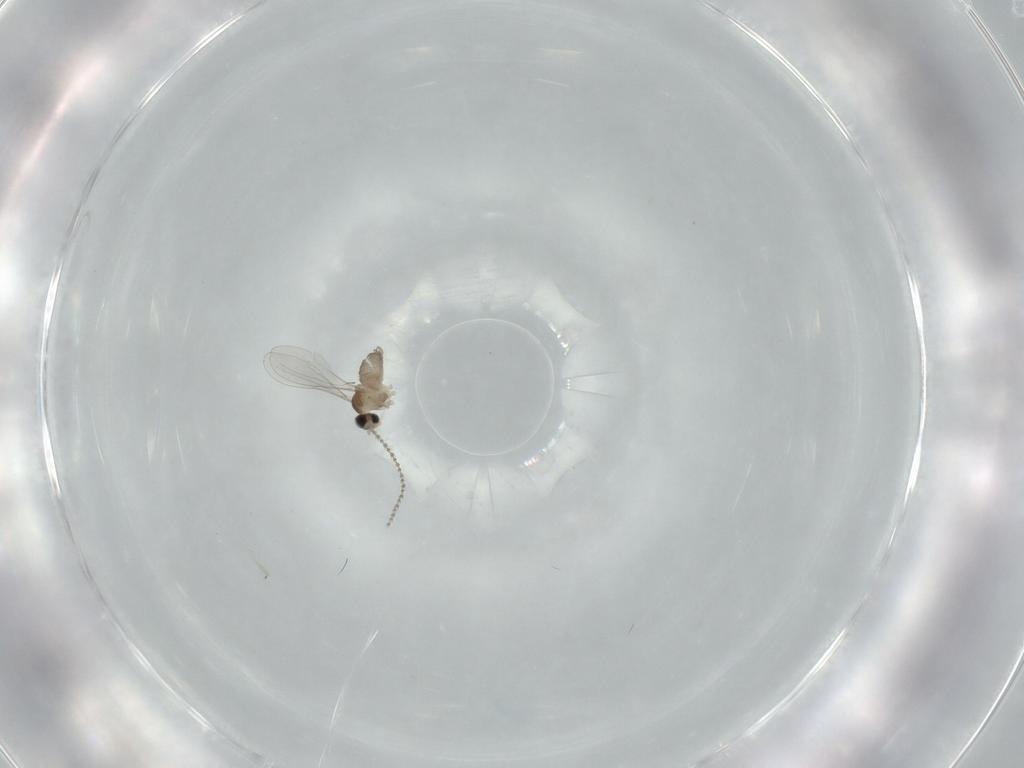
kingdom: Animalia
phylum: Arthropoda
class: Insecta
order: Diptera
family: Cecidomyiidae
